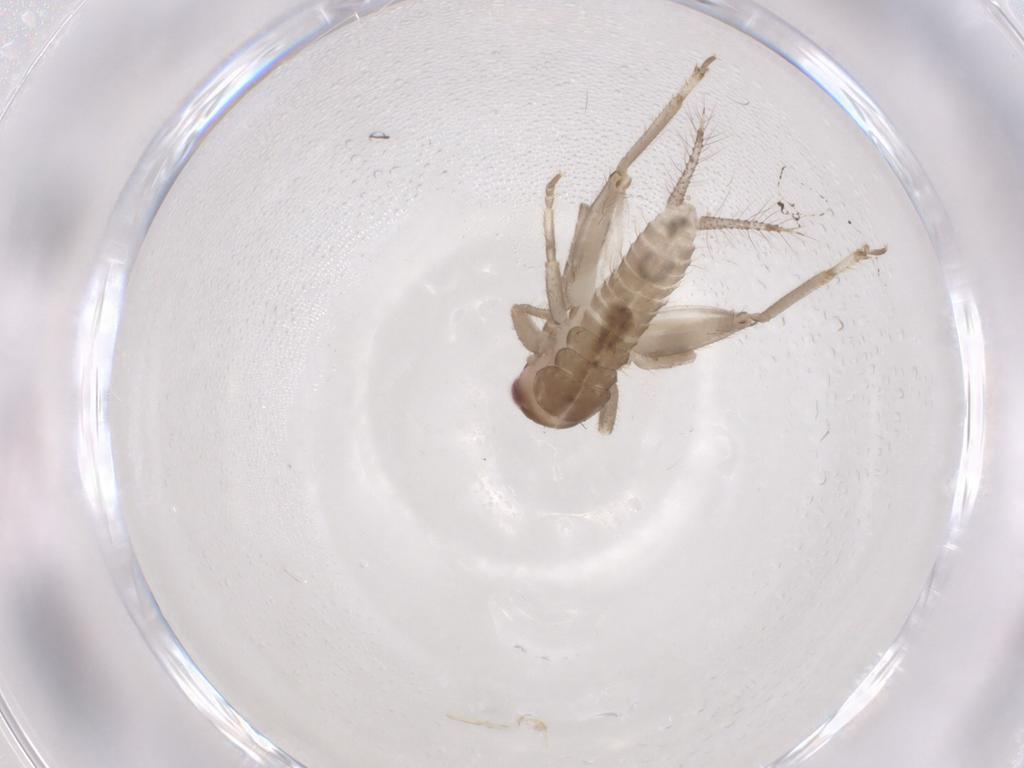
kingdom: Animalia
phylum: Arthropoda
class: Insecta
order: Diptera
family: Cecidomyiidae
